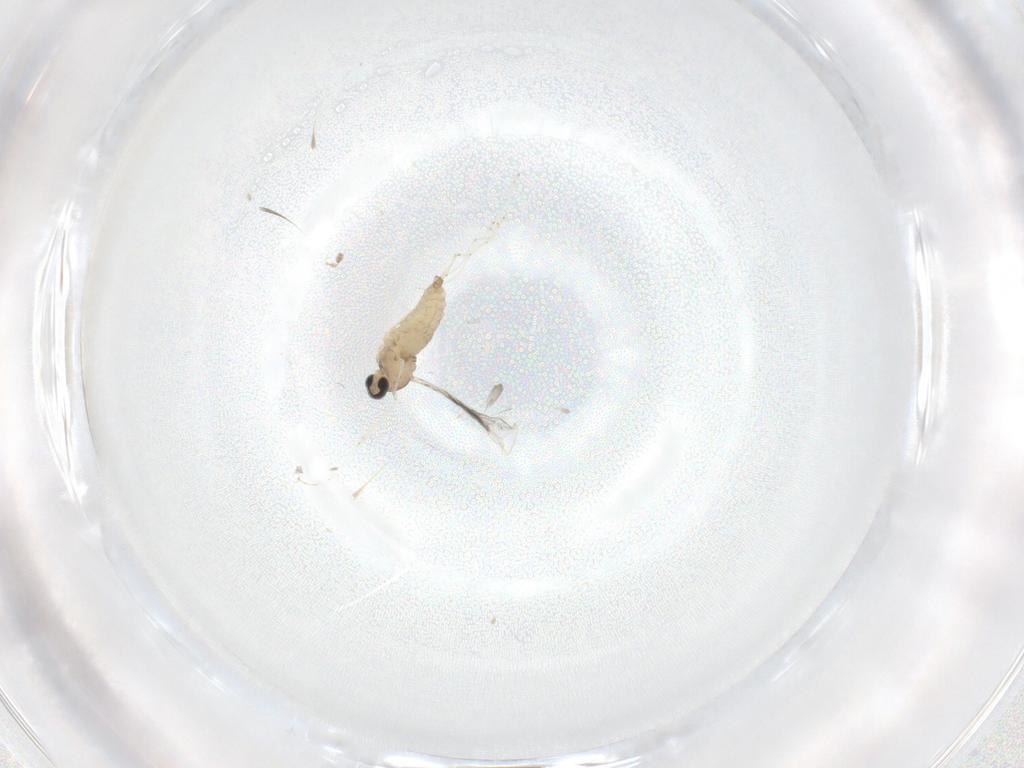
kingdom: Animalia
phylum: Arthropoda
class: Insecta
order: Diptera
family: Cecidomyiidae
